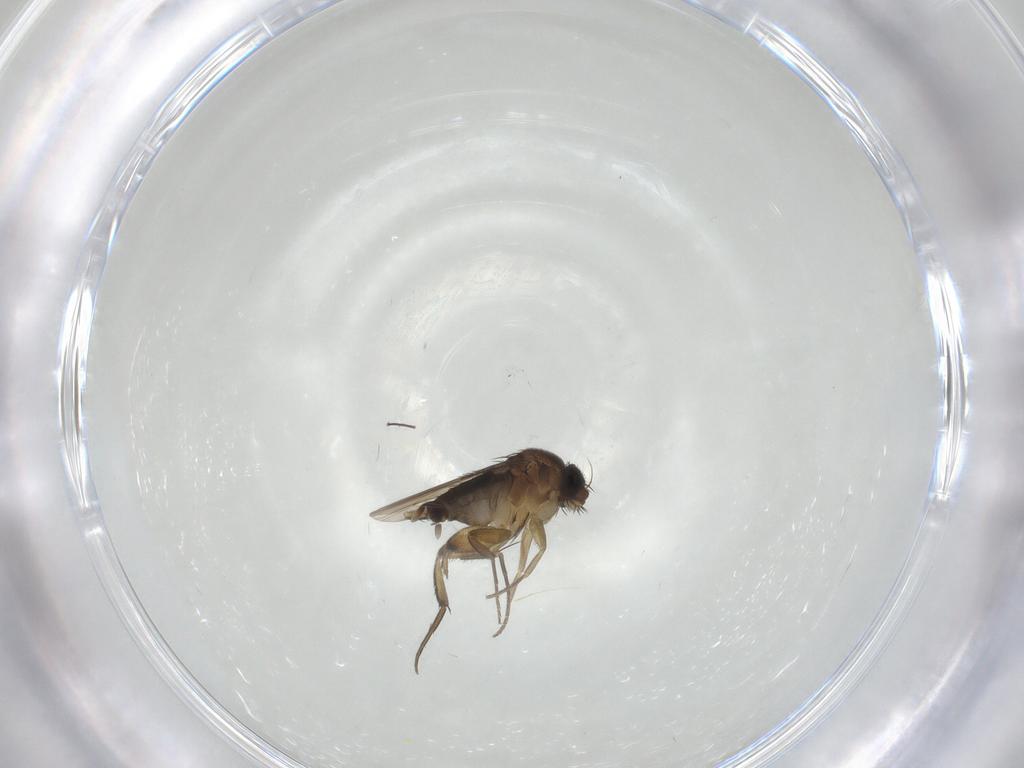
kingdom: Animalia
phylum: Arthropoda
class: Insecta
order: Diptera
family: Phoridae
